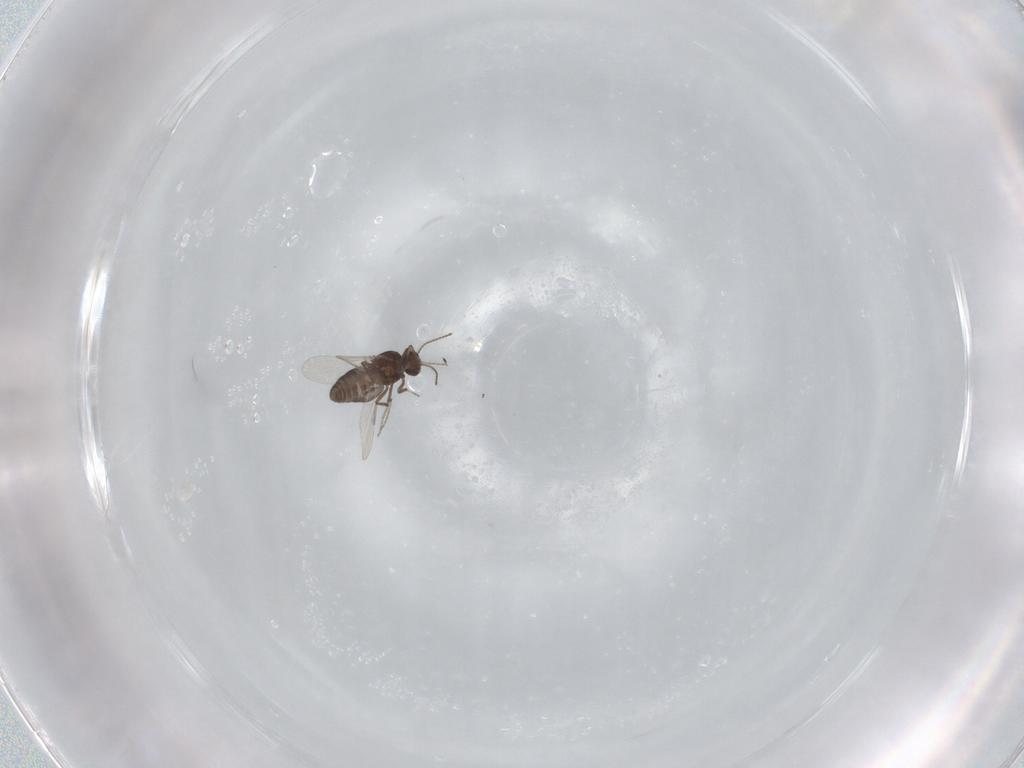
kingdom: Animalia
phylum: Arthropoda
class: Insecta
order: Diptera
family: Ceratopogonidae
